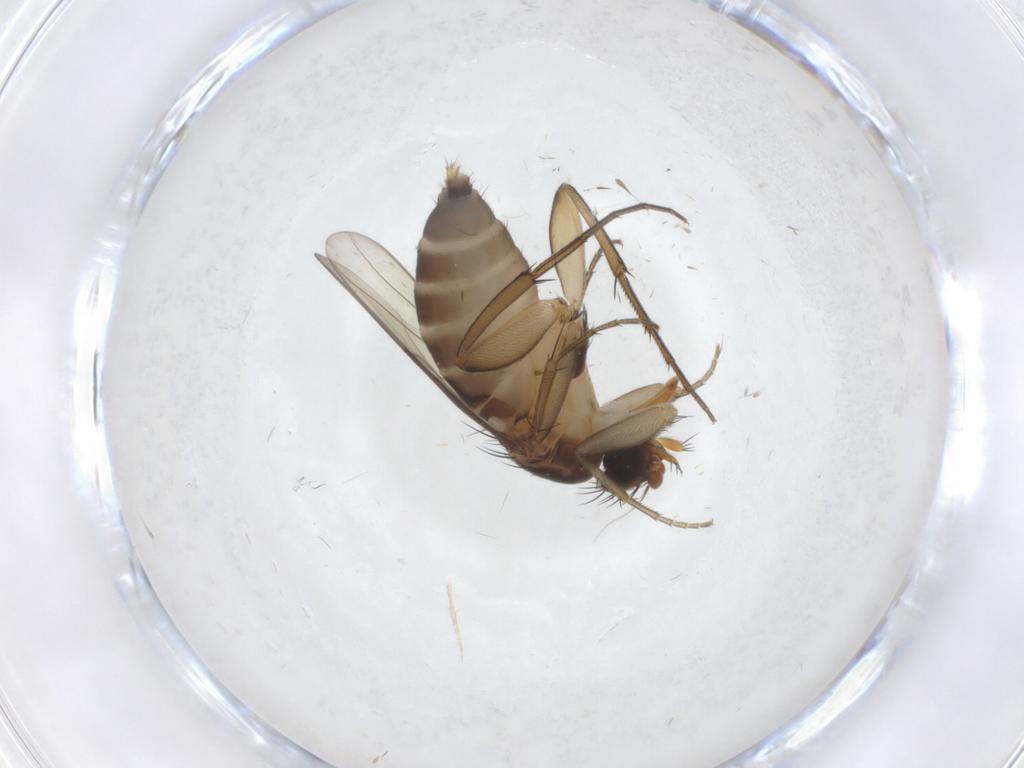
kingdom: Animalia
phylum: Arthropoda
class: Insecta
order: Diptera
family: Phoridae
